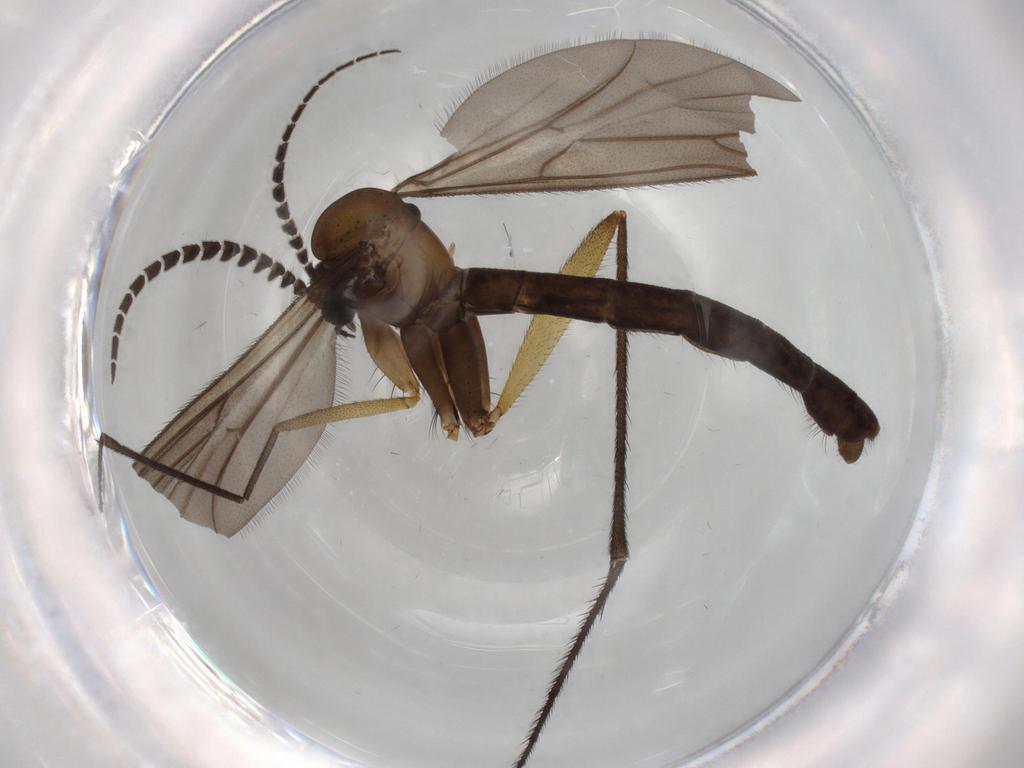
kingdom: Animalia
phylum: Arthropoda
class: Insecta
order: Diptera
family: Ditomyiidae
